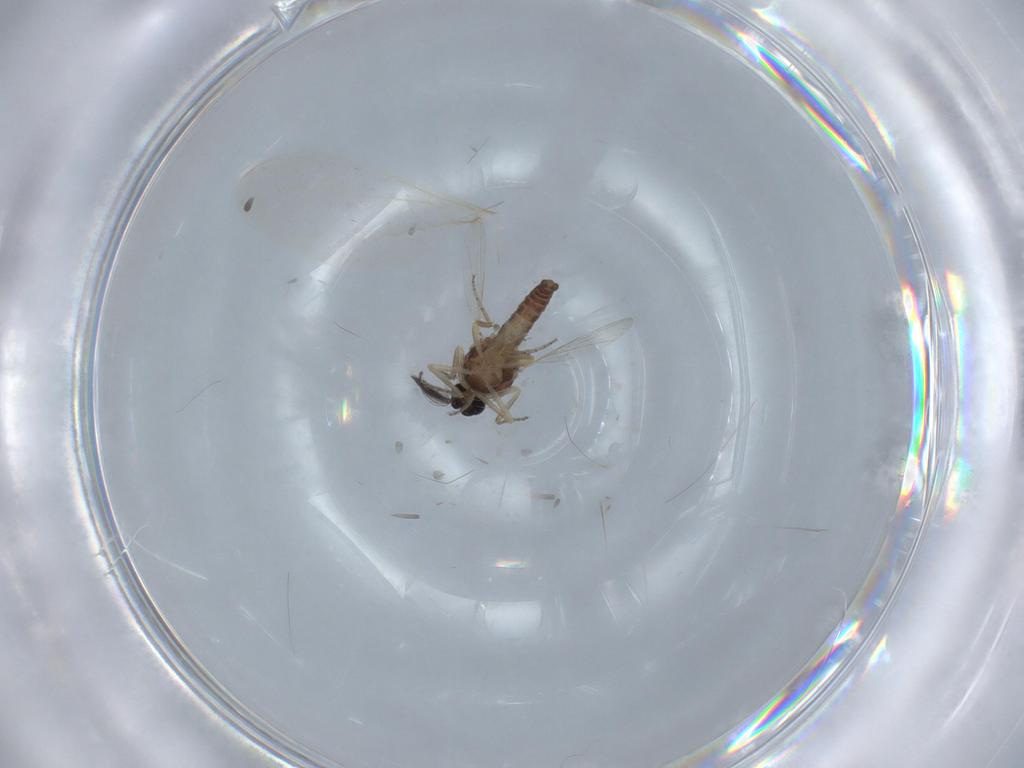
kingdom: Animalia
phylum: Arthropoda
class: Insecta
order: Diptera
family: Ceratopogonidae
